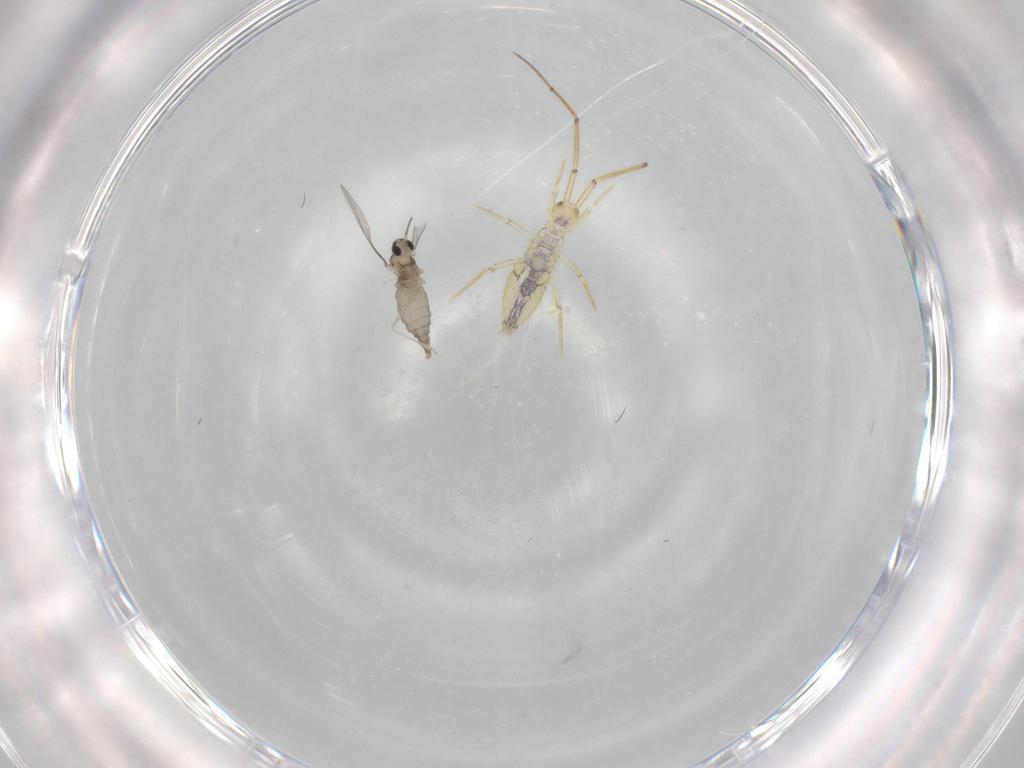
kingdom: Animalia
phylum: Arthropoda
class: Insecta
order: Diptera
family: Cecidomyiidae
